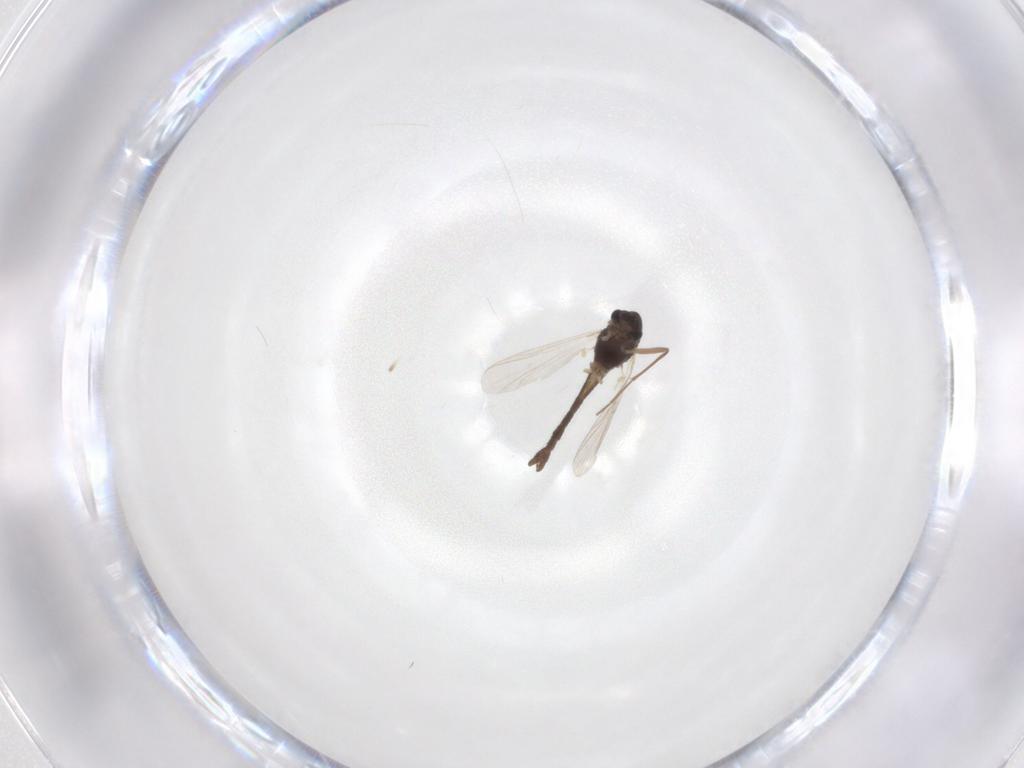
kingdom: Animalia
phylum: Arthropoda
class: Insecta
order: Diptera
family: Chironomidae
